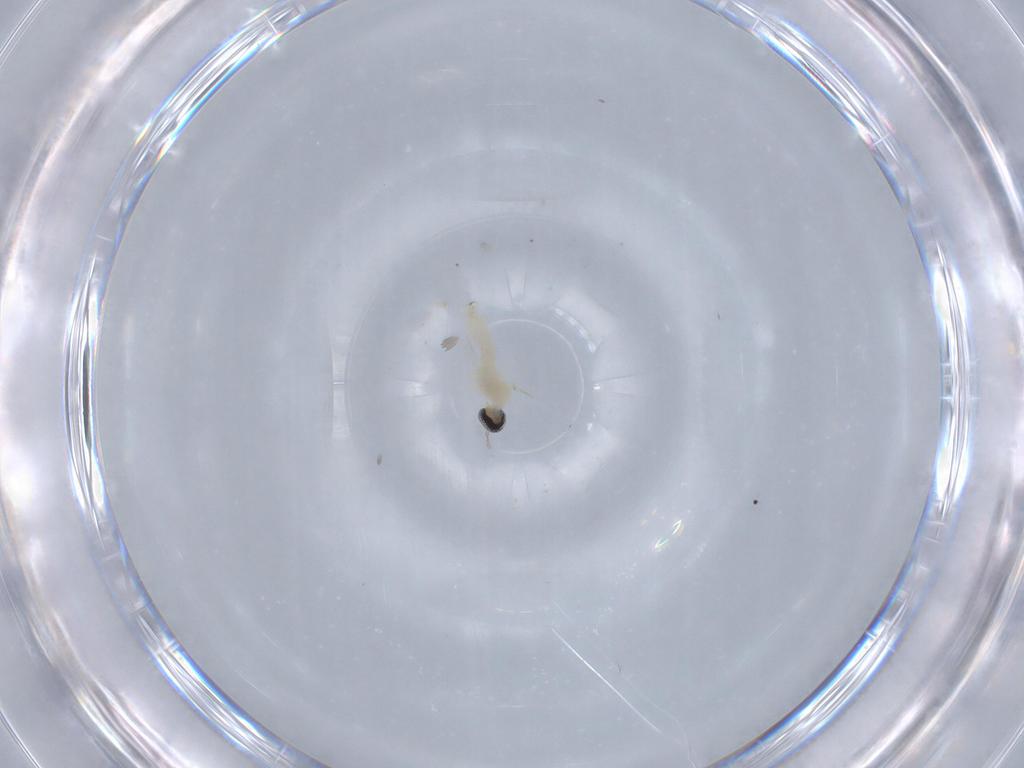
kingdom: Animalia
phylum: Arthropoda
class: Insecta
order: Diptera
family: Cecidomyiidae
